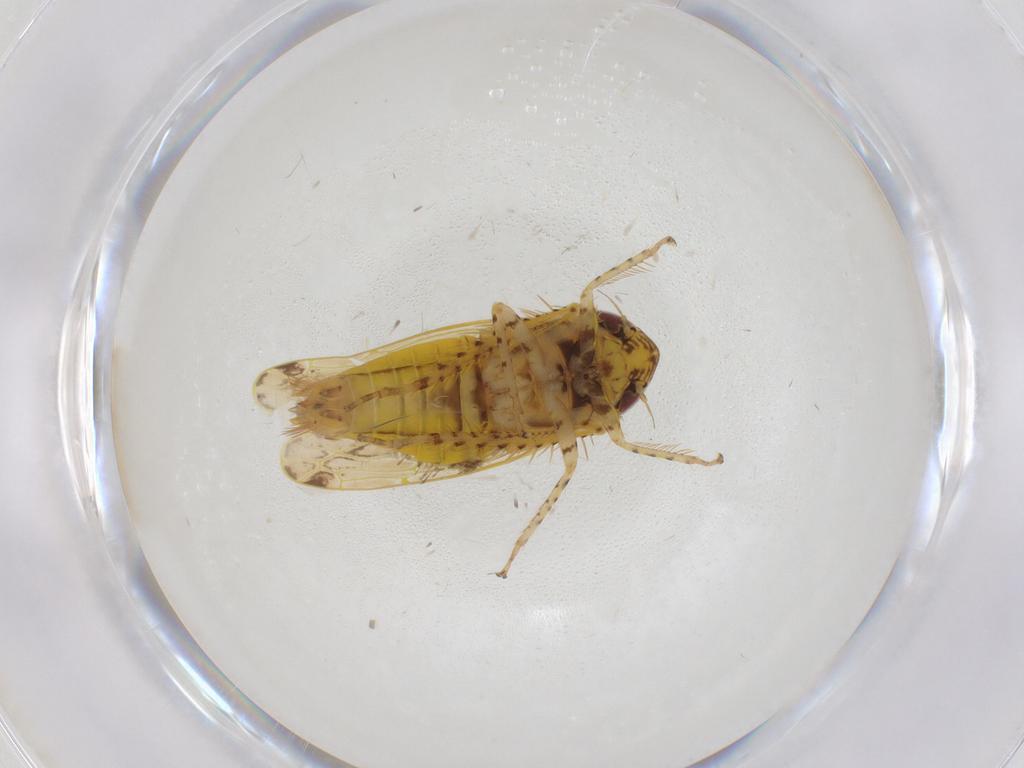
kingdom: Animalia
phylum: Arthropoda
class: Insecta
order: Hemiptera
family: Cicadellidae
